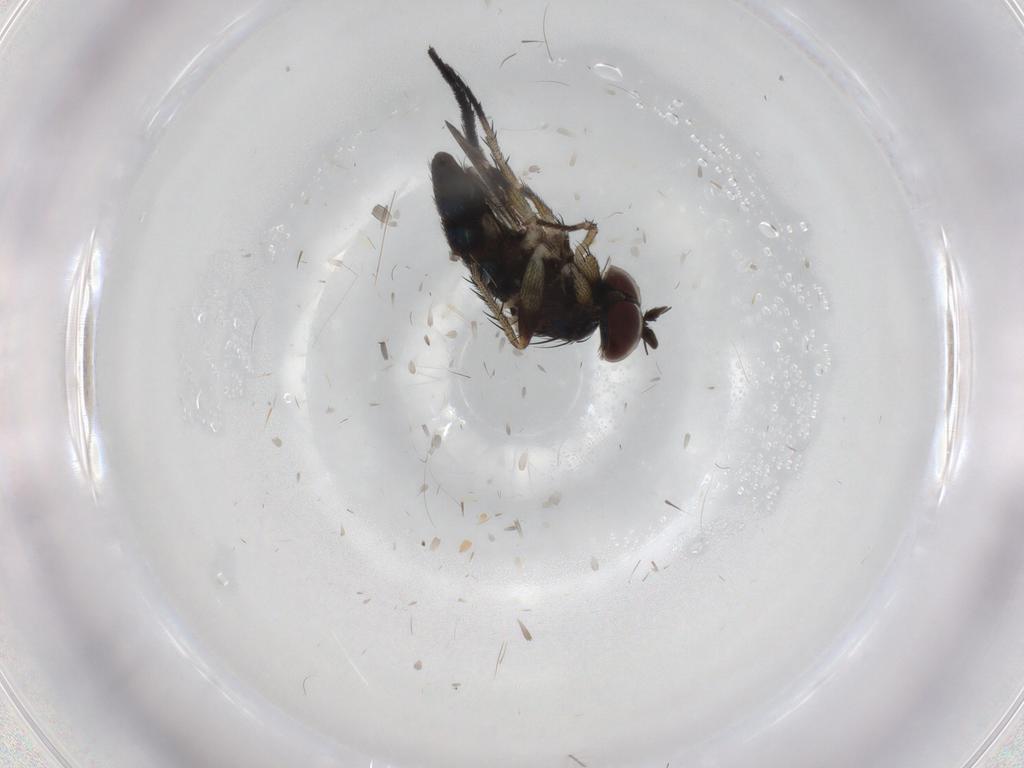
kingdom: Animalia
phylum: Arthropoda
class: Insecta
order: Diptera
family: Dolichopodidae
